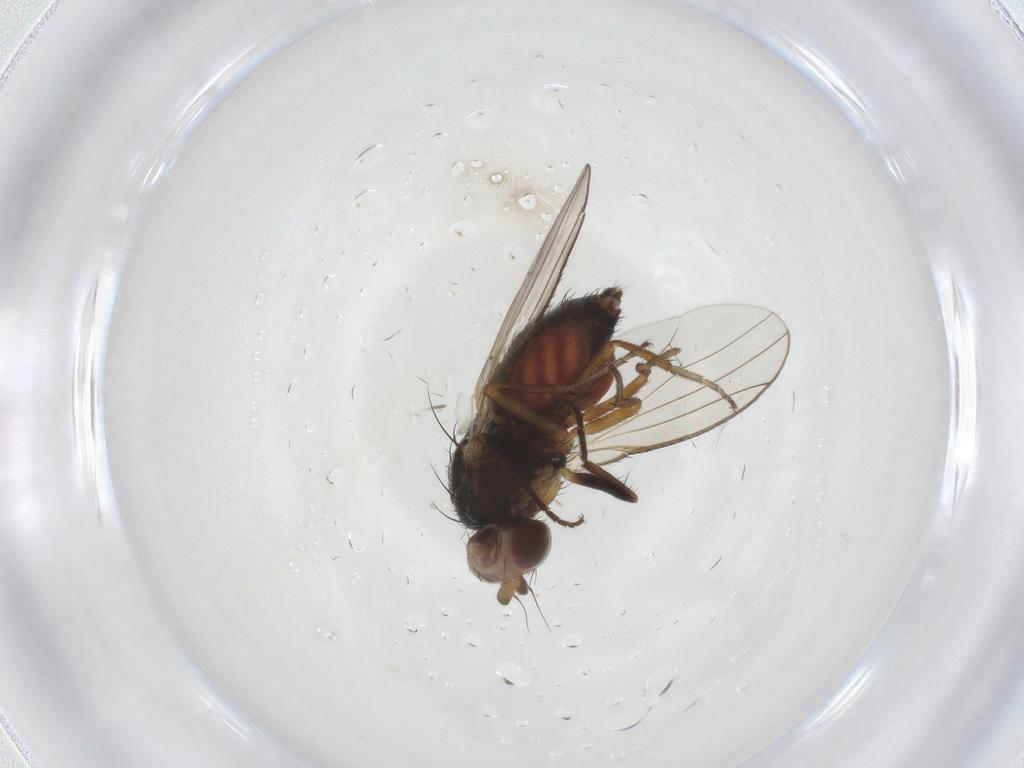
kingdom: Animalia
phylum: Arthropoda
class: Insecta
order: Diptera
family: Heleomyzidae
